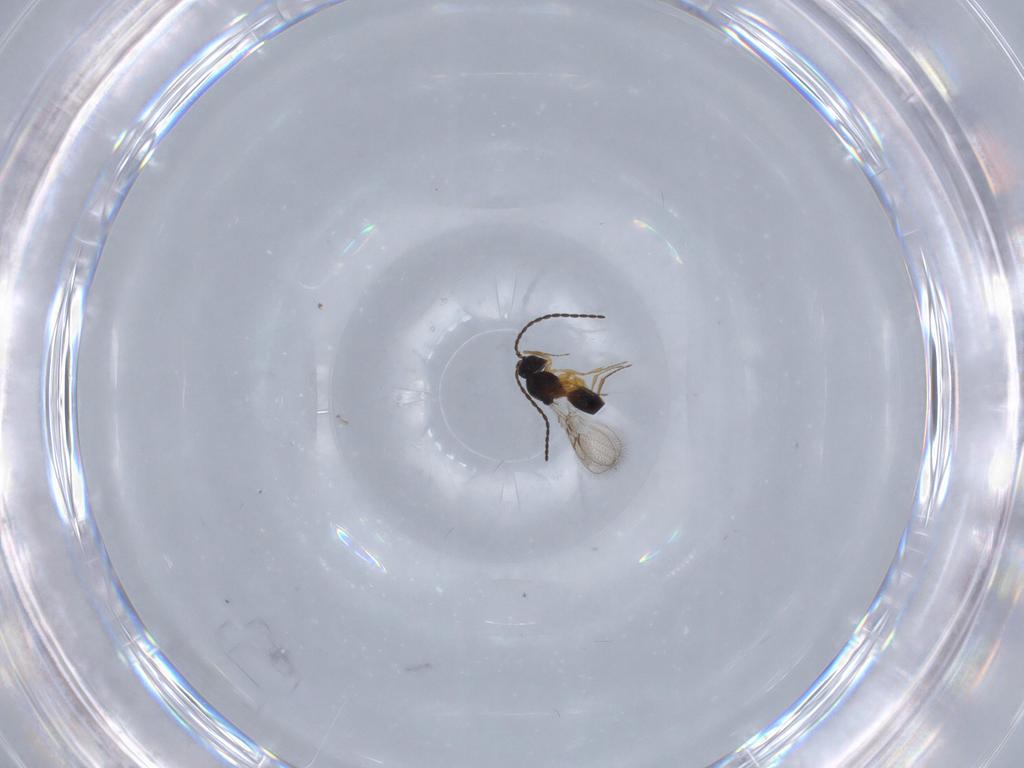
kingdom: Animalia
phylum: Arthropoda
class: Insecta
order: Hymenoptera
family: Figitidae
